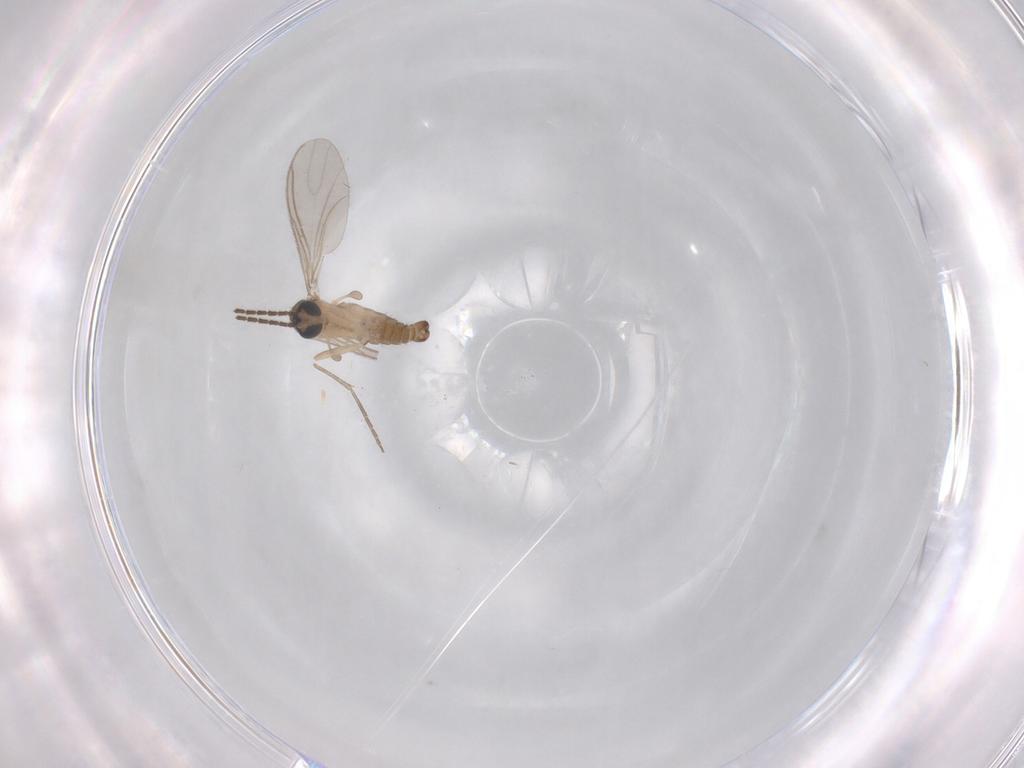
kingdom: Animalia
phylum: Arthropoda
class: Insecta
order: Diptera
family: Sciaridae
